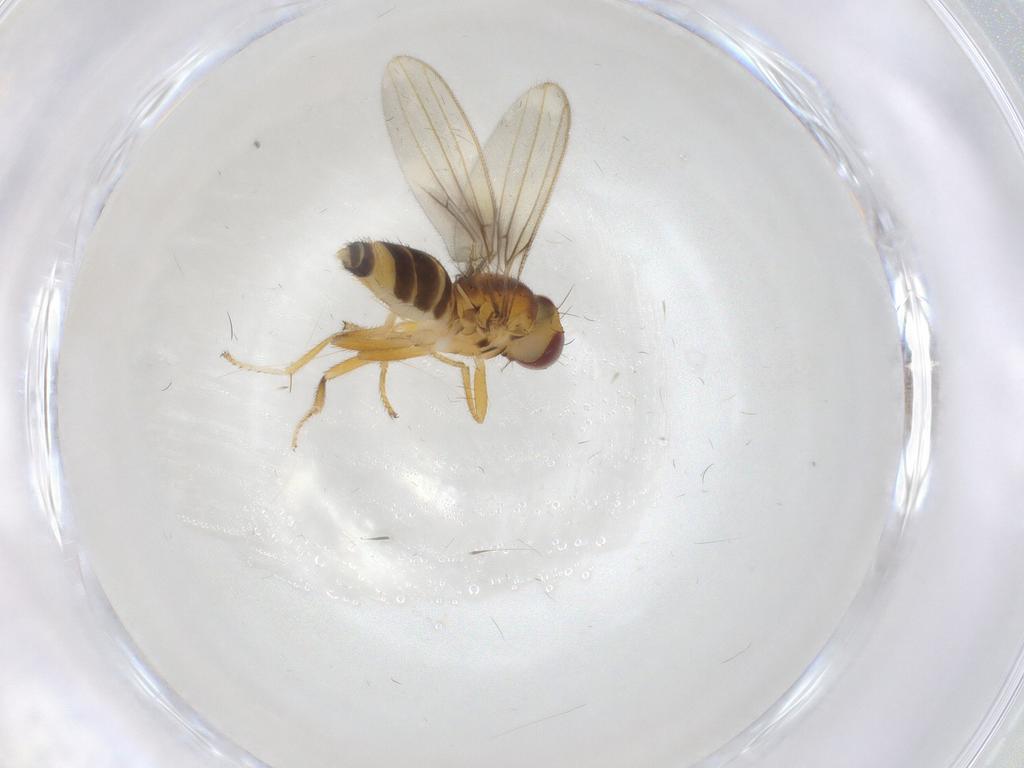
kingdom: Animalia
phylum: Arthropoda
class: Insecta
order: Diptera
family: Periscelididae
